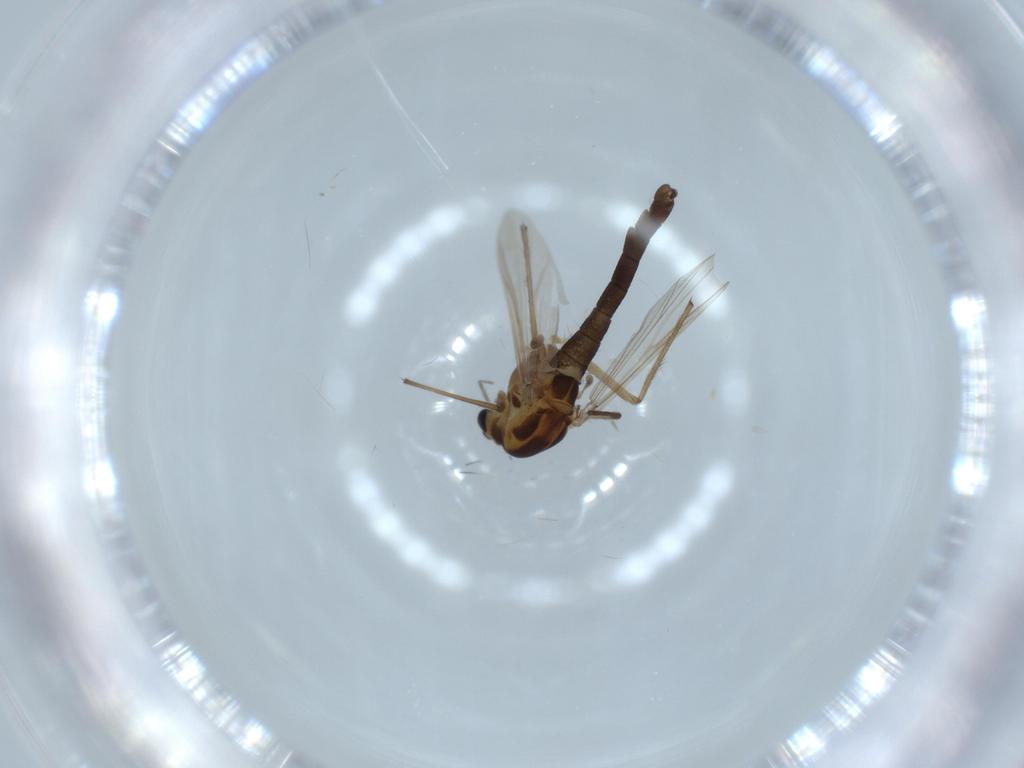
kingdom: Animalia
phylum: Arthropoda
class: Insecta
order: Diptera
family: Chironomidae
